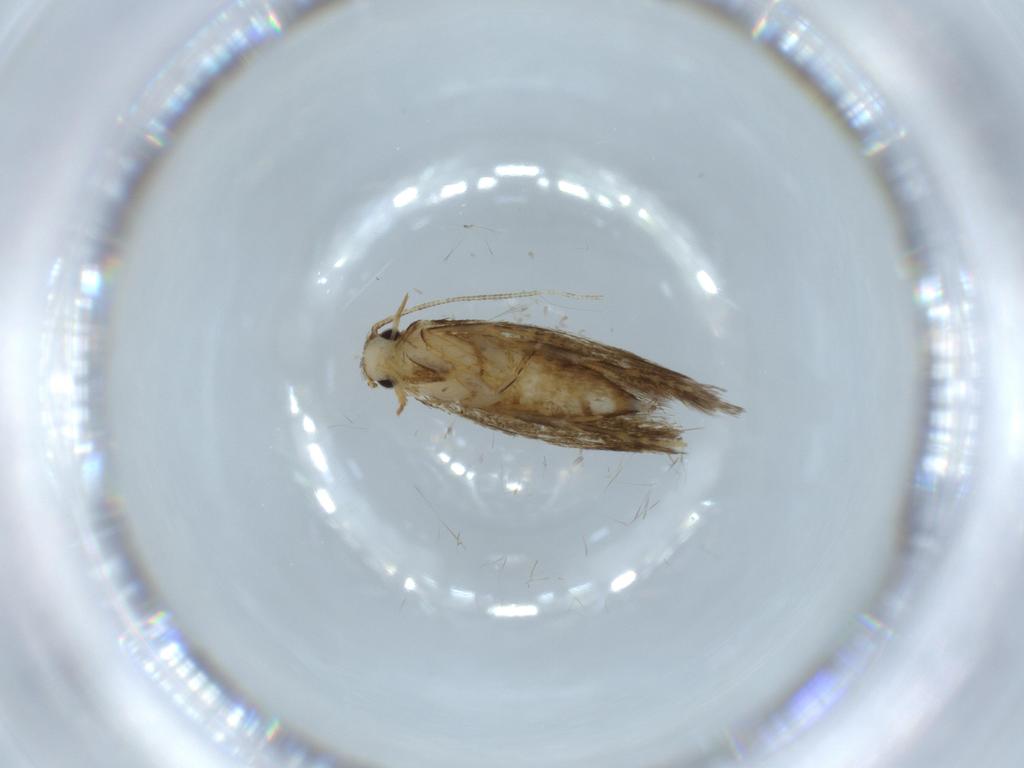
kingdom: Animalia
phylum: Arthropoda
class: Insecta
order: Lepidoptera
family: Tineidae
